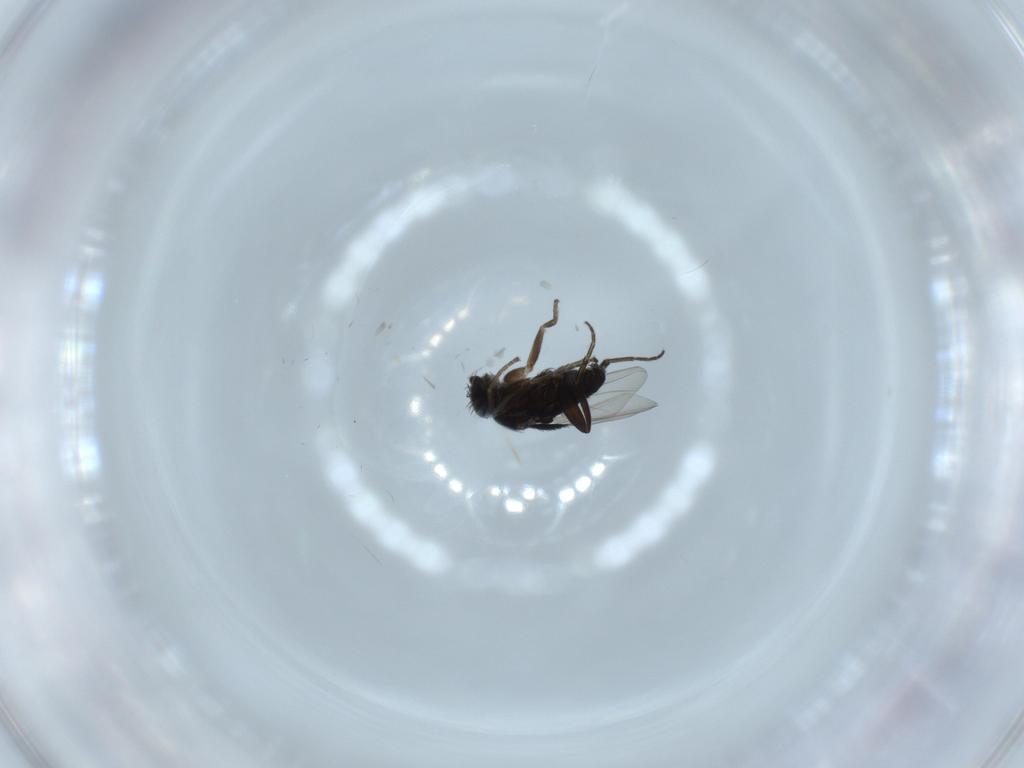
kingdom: Animalia
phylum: Arthropoda
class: Insecta
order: Diptera
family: Phoridae
